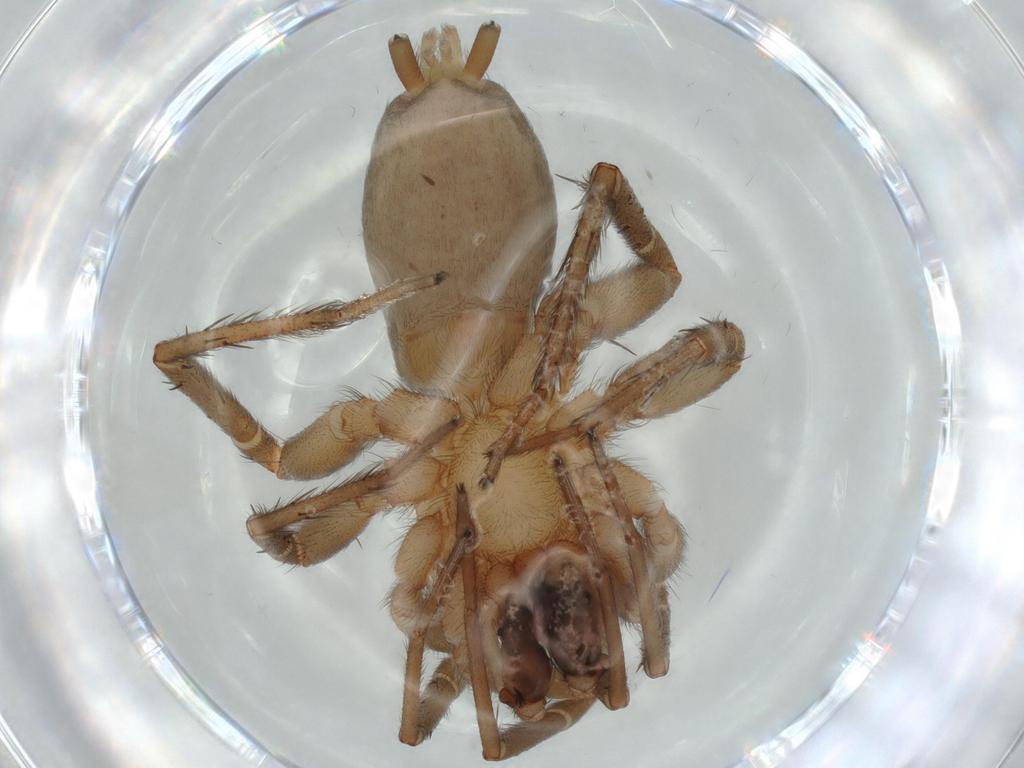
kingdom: Animalia
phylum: Arthropoda
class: Arachnida
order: Araneae
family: Gnaphosidae
